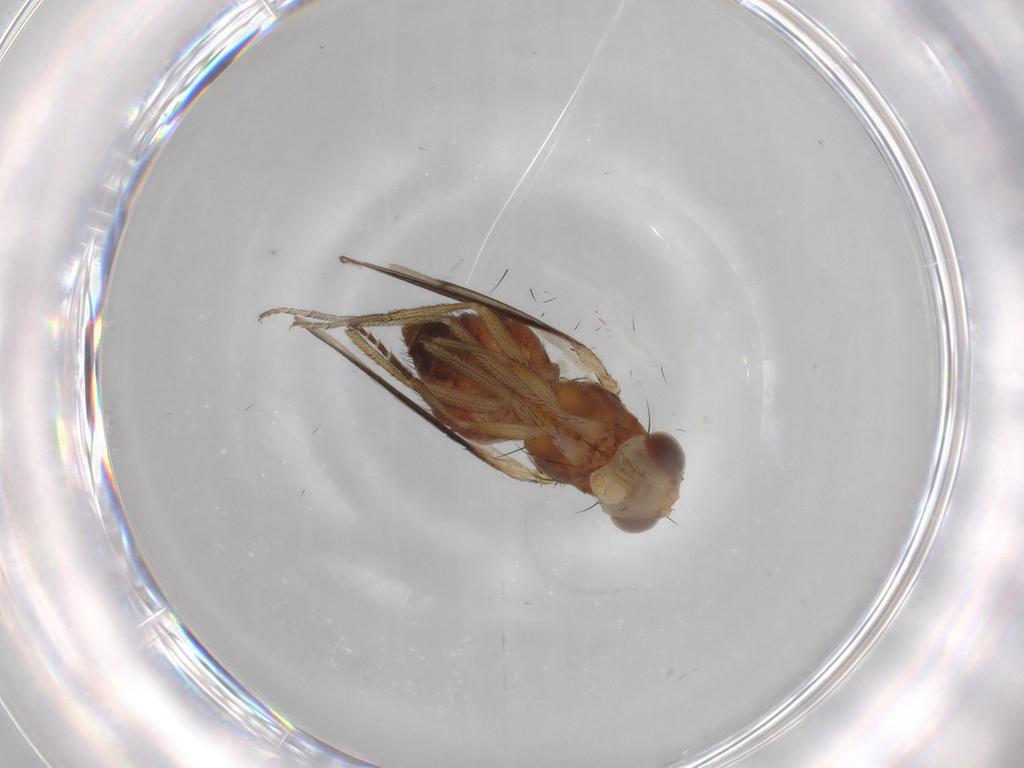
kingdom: Animalia
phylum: Arthropoda
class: Insecta
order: Diptera
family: Sphaeroceridae
